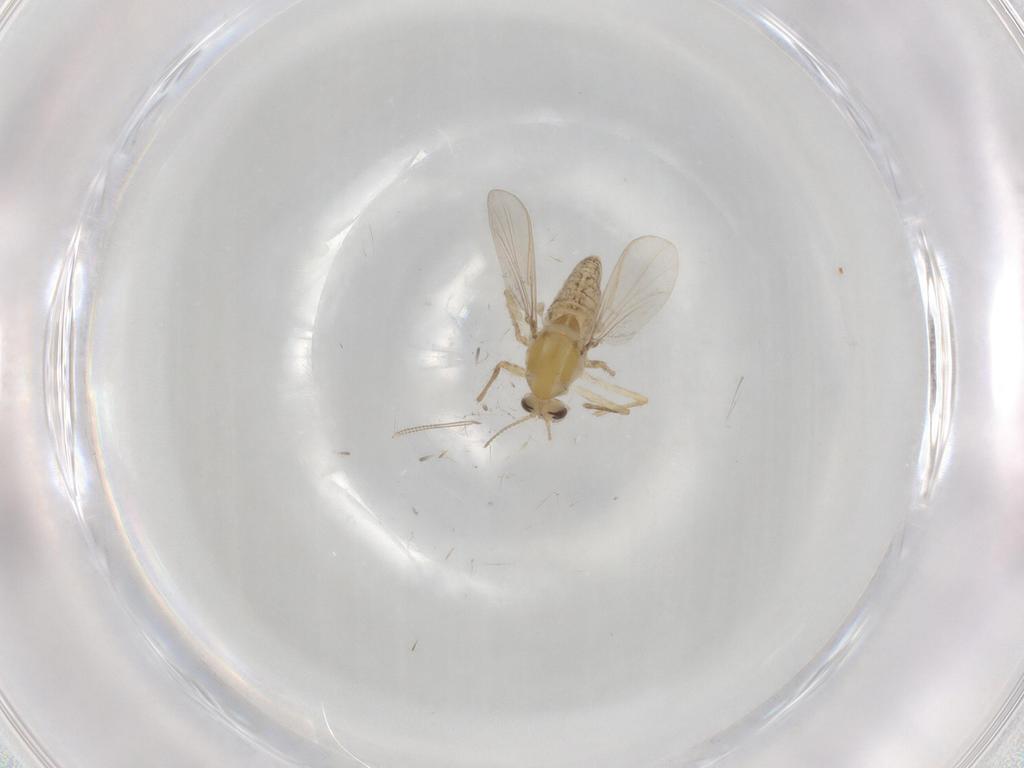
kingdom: Animalia
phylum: Arthropoda
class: Insecta
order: Diptera
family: Chironomidae
